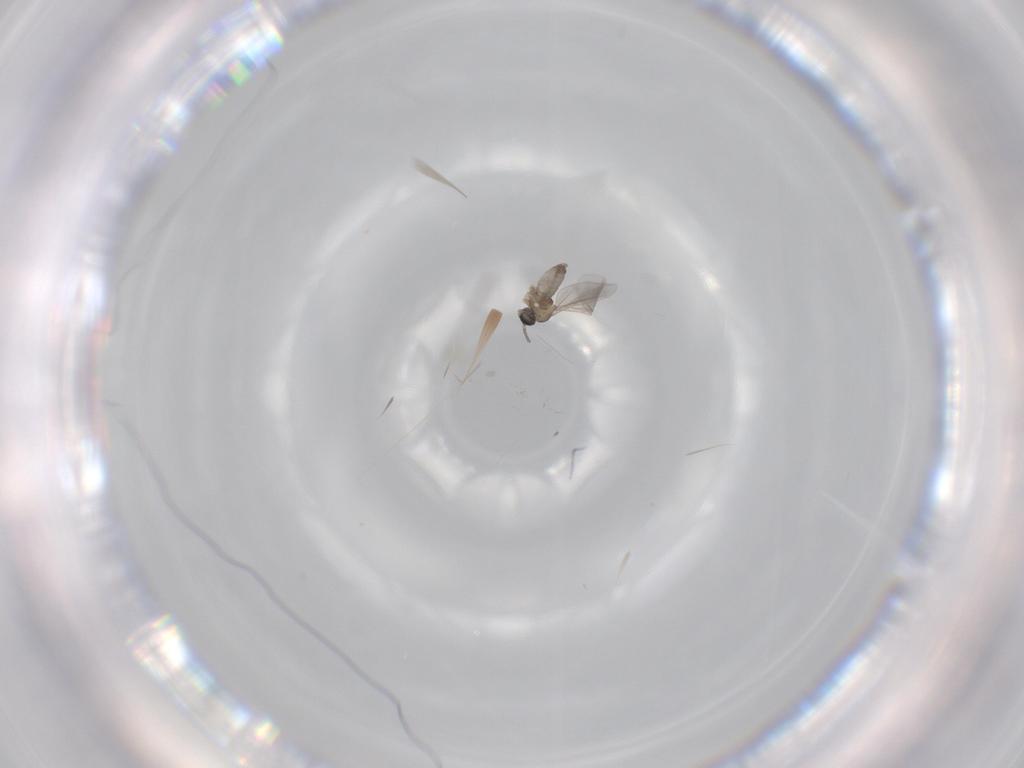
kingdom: Animalia
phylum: Arthropoda
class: Insecta
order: Diptera
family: Cecidomyiidae
